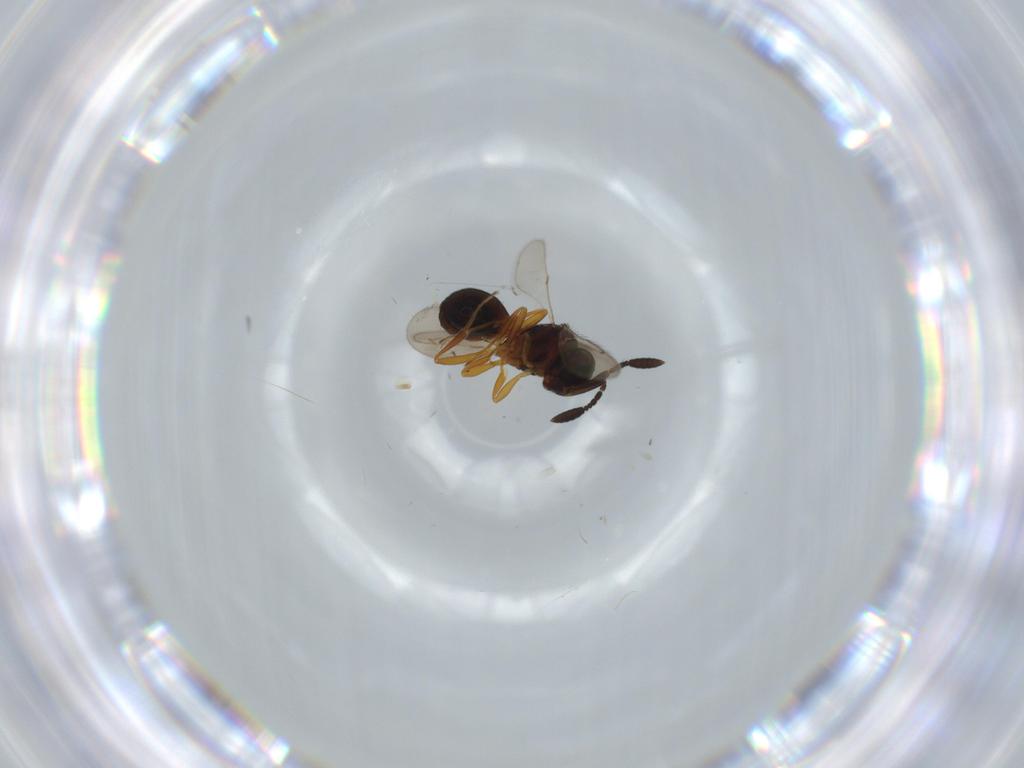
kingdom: Animalia
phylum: Arthropoda
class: Insecta
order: Hymenoptera
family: Scelionidae
